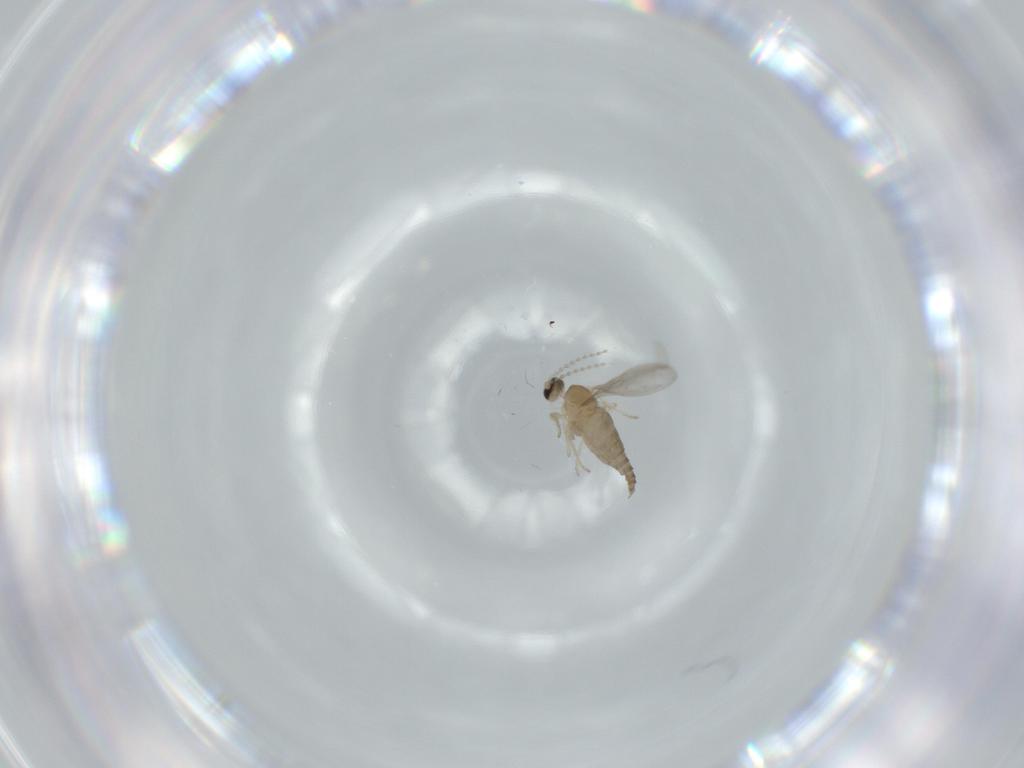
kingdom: Animalia
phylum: Arthropoda
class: Insecta
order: Diptera
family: Cecidomyiidae
